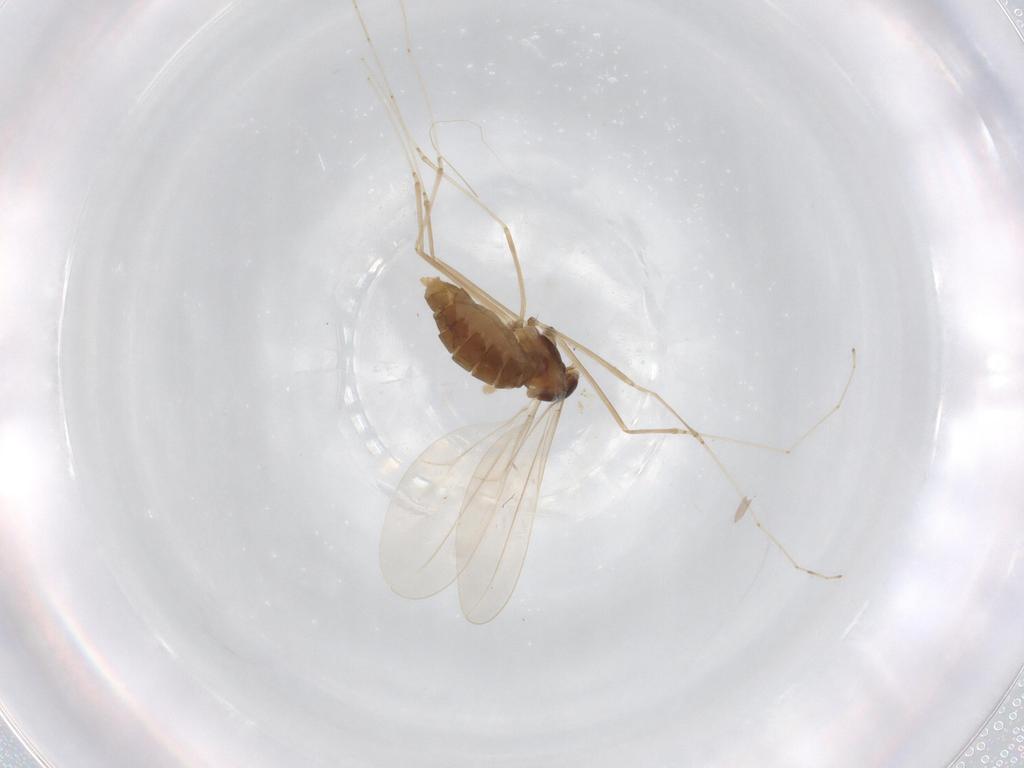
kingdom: Animalia
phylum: Arthropoda
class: Insecta
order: Diptera
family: Cecidomyiidae
